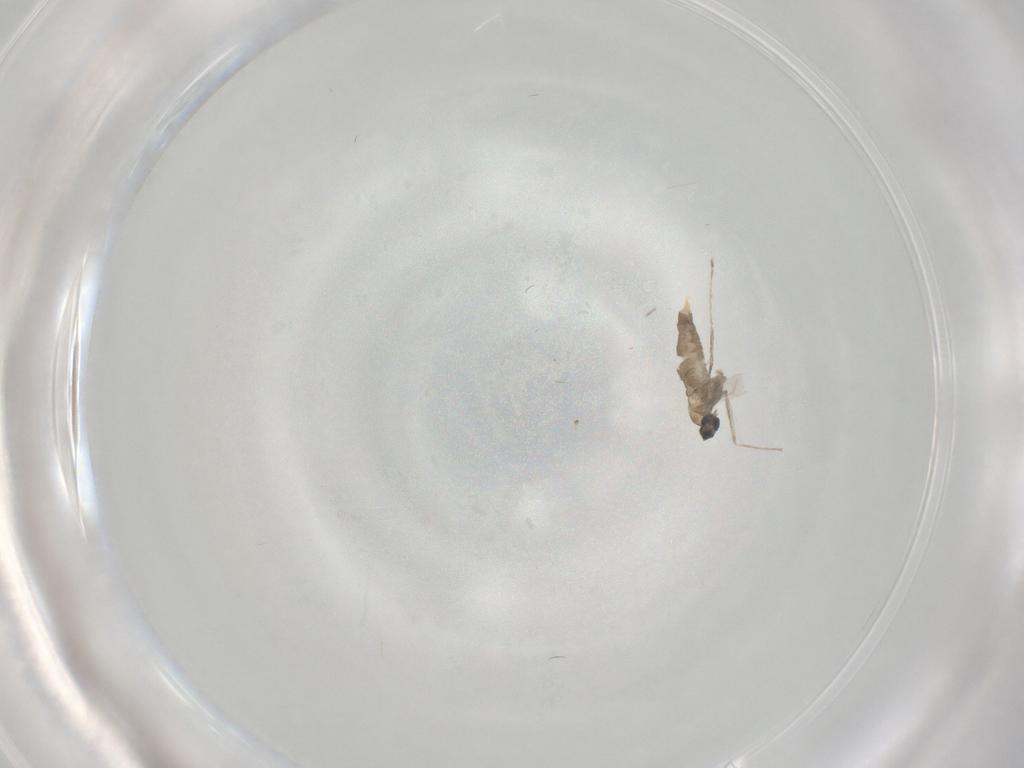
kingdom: Animalia
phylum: Arthropoda
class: Insecta
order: Diptera
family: Cecidomyiidae
